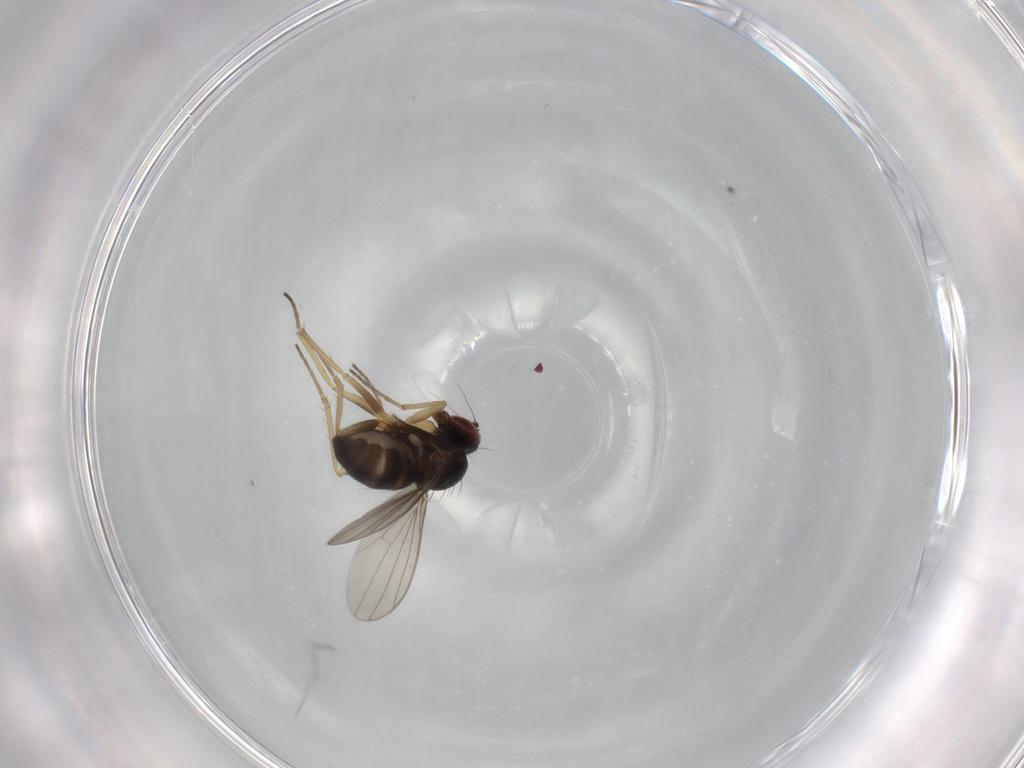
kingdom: Animalia
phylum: Arthropoda
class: Insecta
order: Diptera
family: Dolichopodidae
